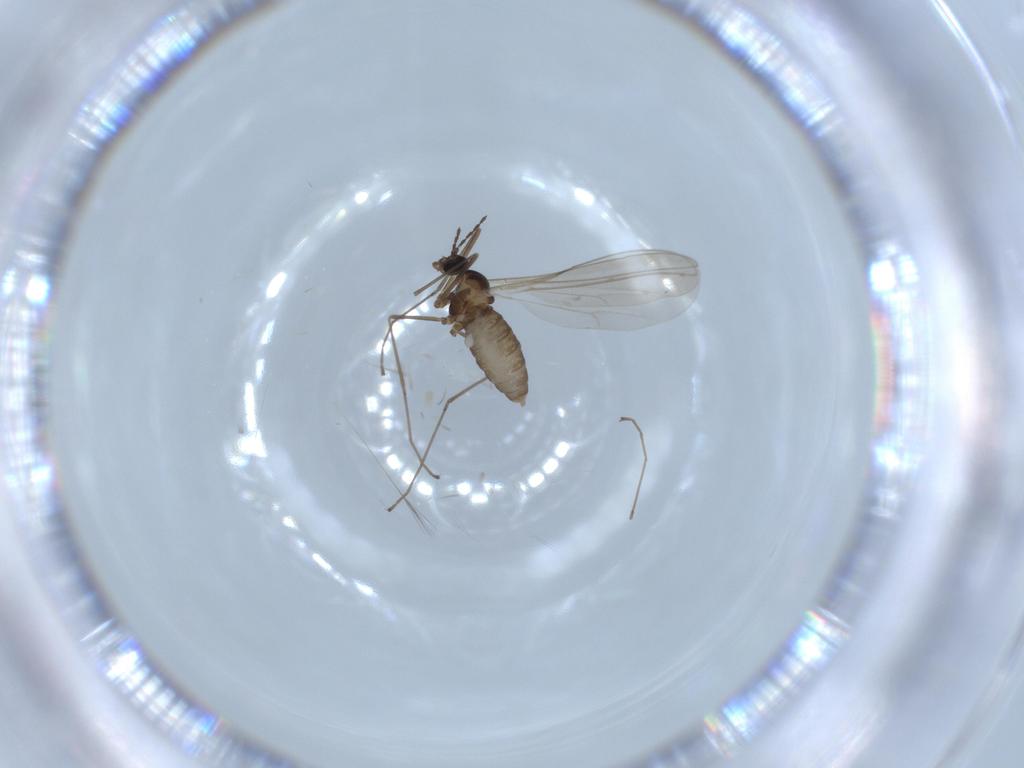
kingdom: Animalia
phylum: Arthropoda
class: Insecta
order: Diptera
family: Cecidomyiidae
